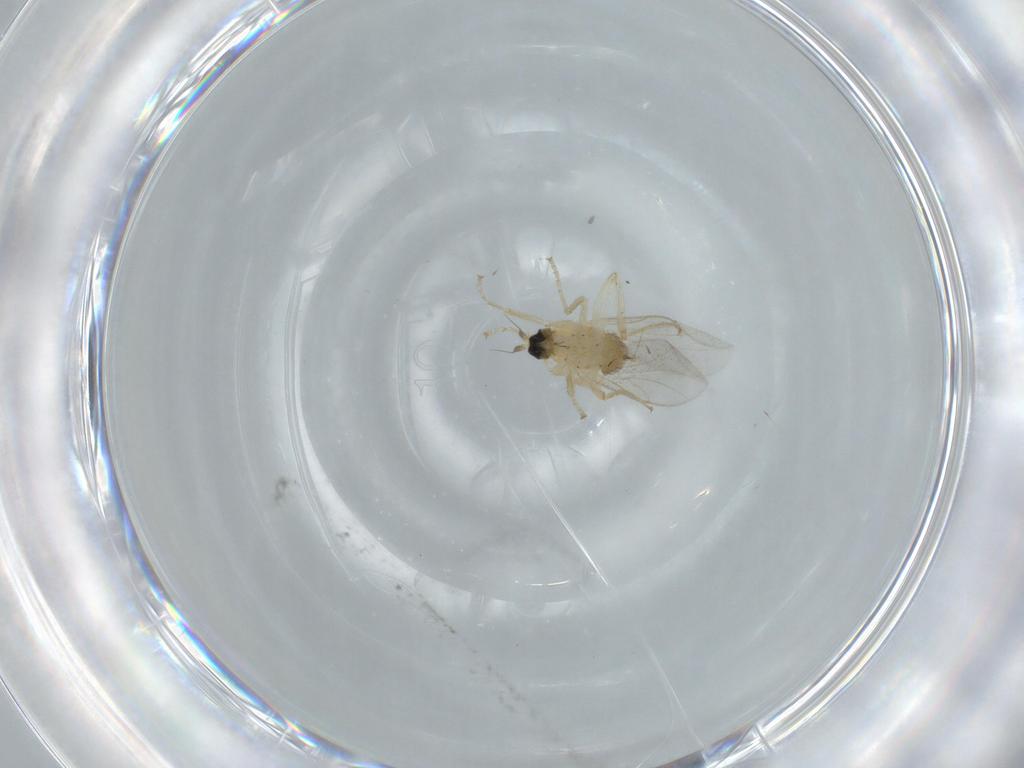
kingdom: Animalia
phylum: Arthropoda
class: Insecta
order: Diptera
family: Hybotidae
